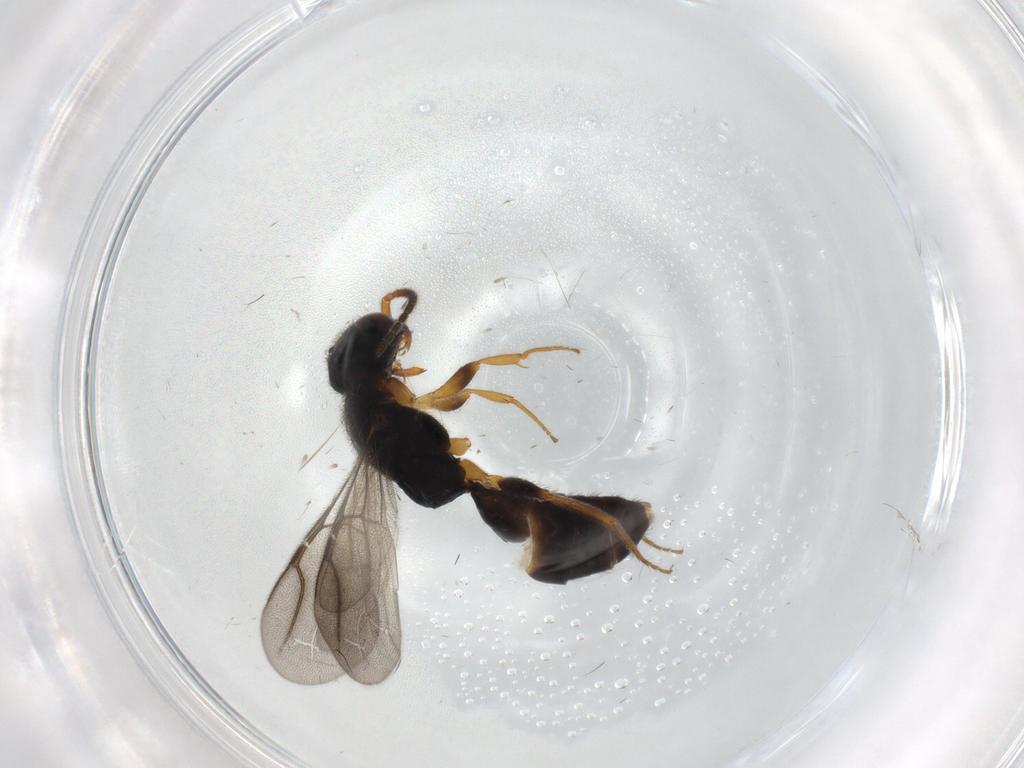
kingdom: Animalia
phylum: Arthropoda
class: Insecta
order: Hymenoptera
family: Bethylidae
